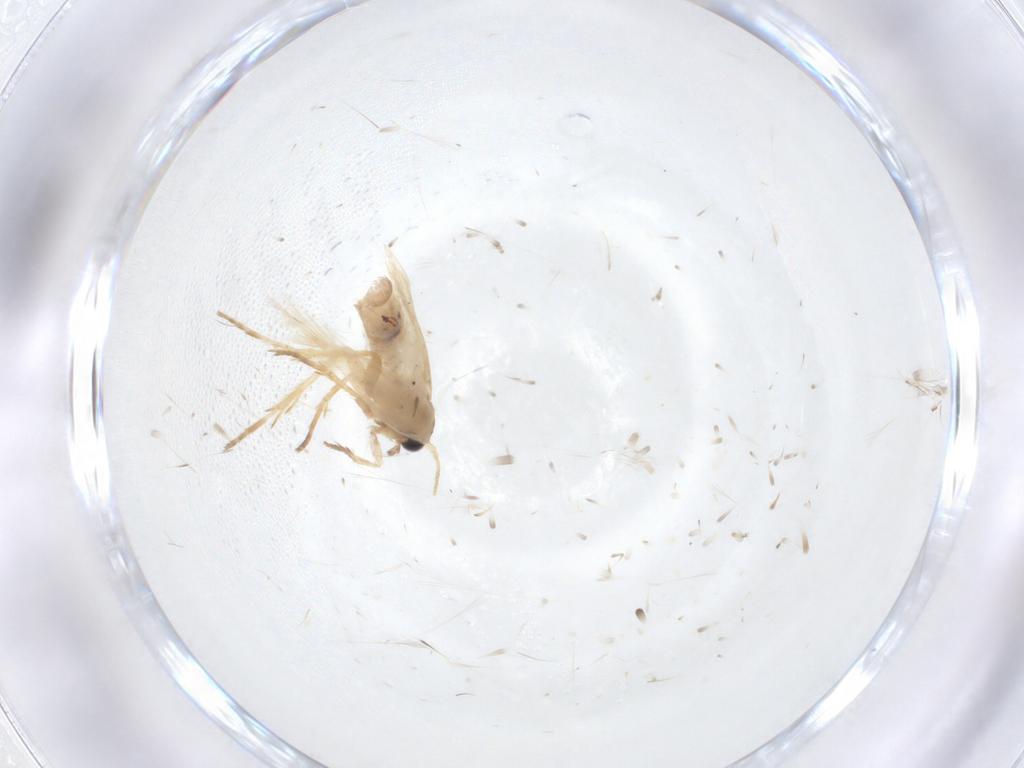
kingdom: Animalia
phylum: Arthropoda
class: Insecta
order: Lepidoptera
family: Nepticulidae
